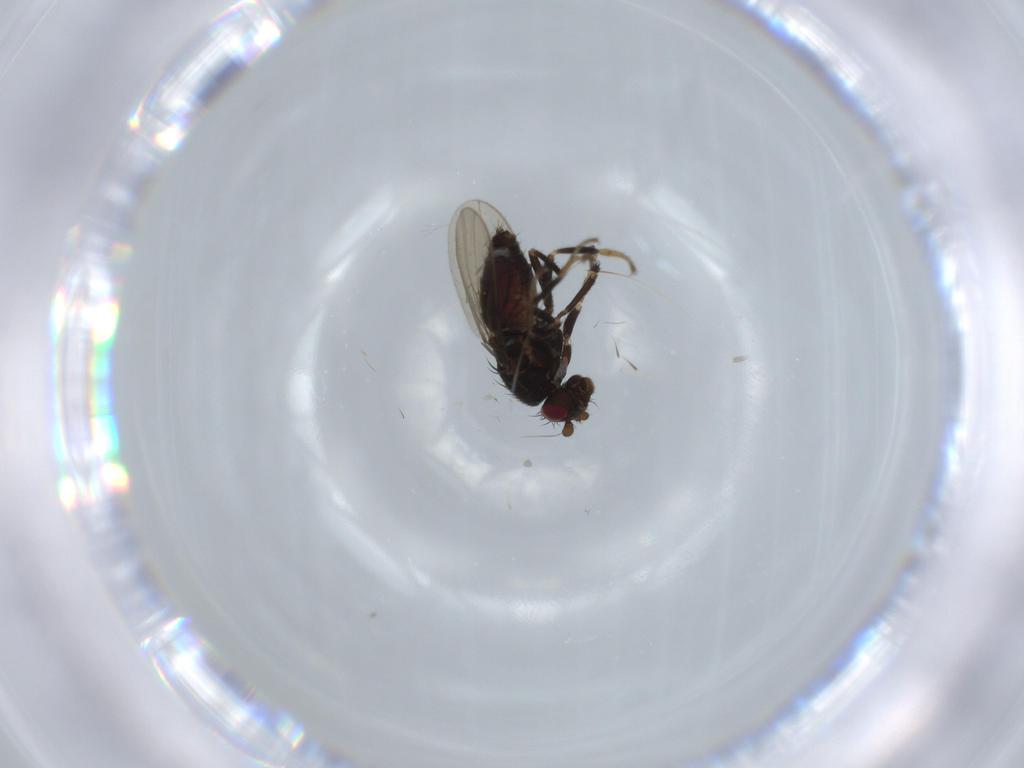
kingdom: Animalia
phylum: Arthropoda
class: Insecta
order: Diptera
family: Sphaeroceridae
